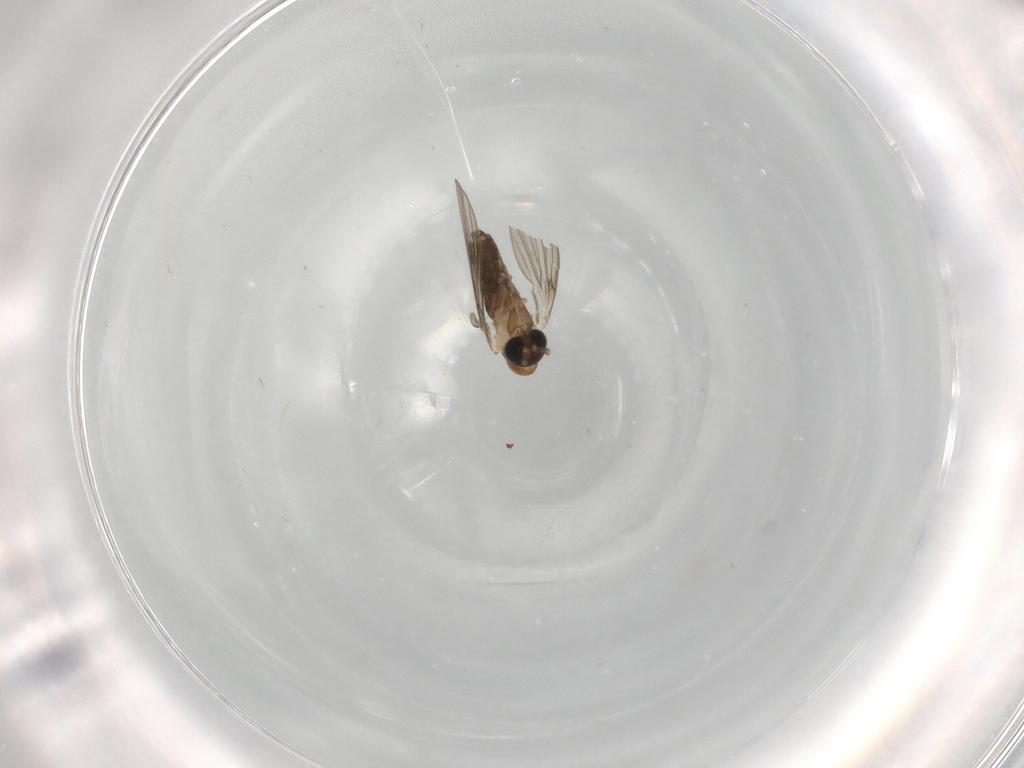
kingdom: Animalia
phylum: Arthropoda
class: Insecta
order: Diptera
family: Psychodidae
